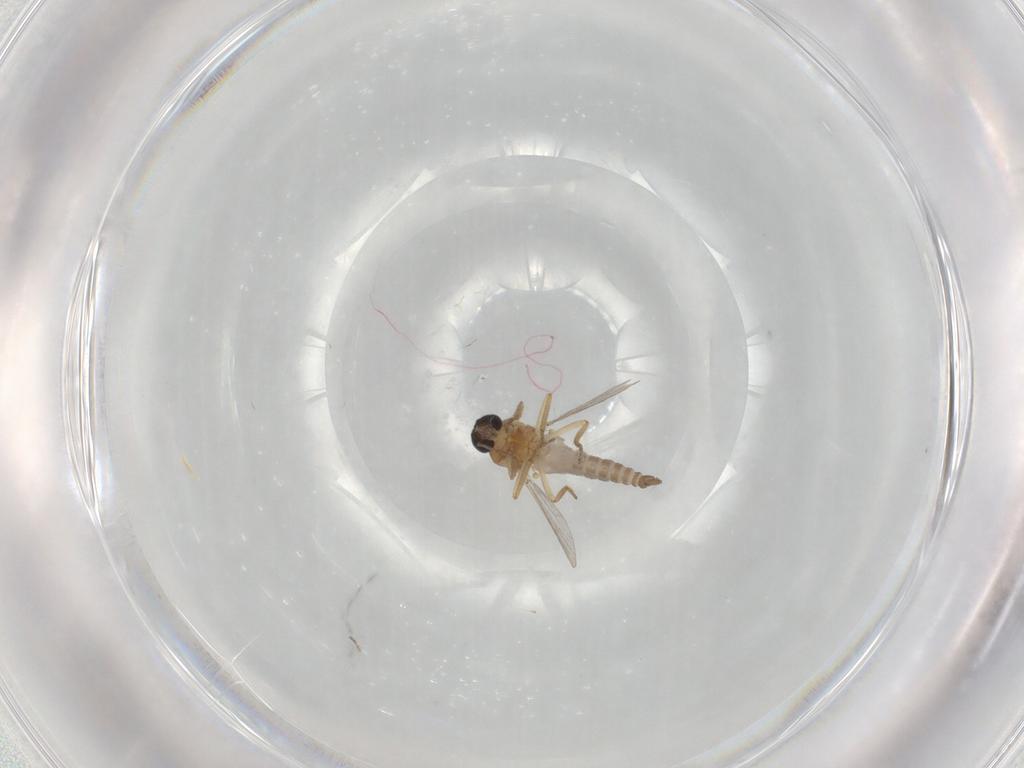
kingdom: Animalia
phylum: Arthropoda
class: Insecta
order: Diptera
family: Ceratopogonidae
